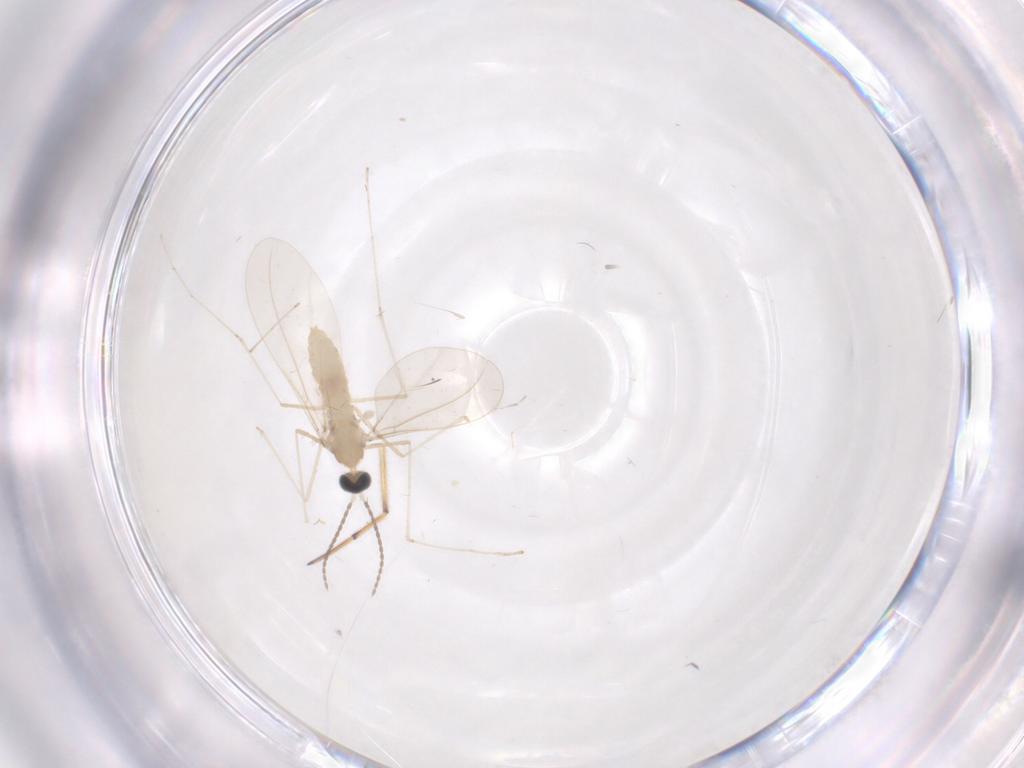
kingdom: Animalia
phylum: Arthropoda
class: Insecta
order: Diptera
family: Cecidomyiidae
